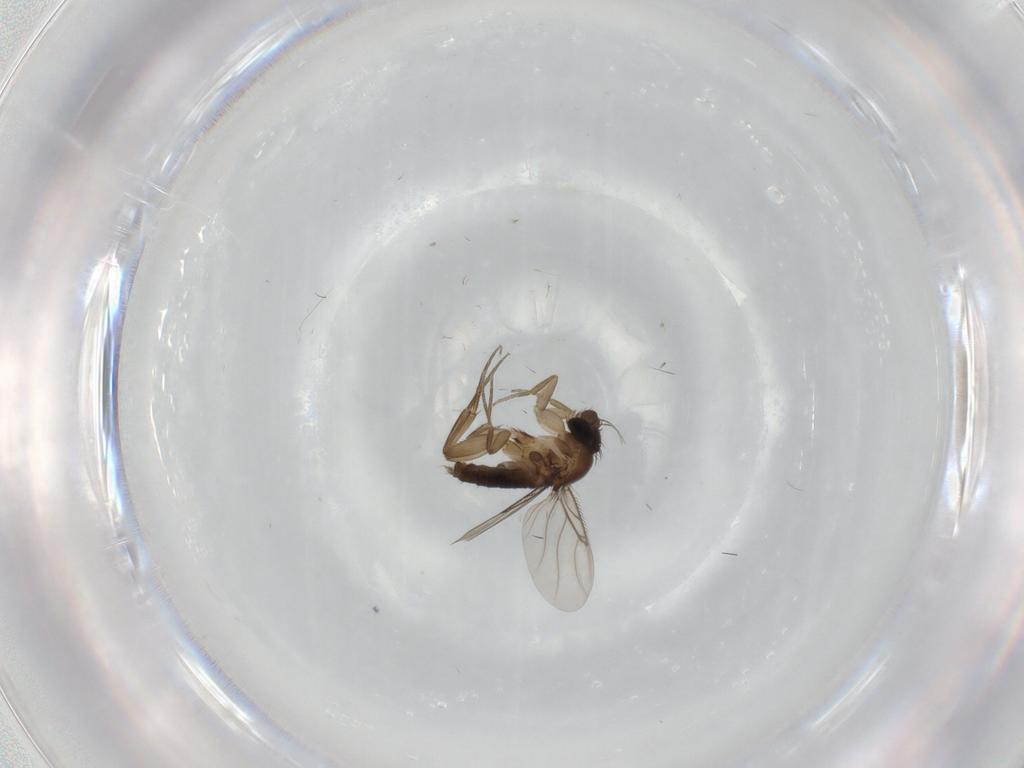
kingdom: Animalia
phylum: Arthropoda
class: Insecta
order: Diptera
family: Phoridae
